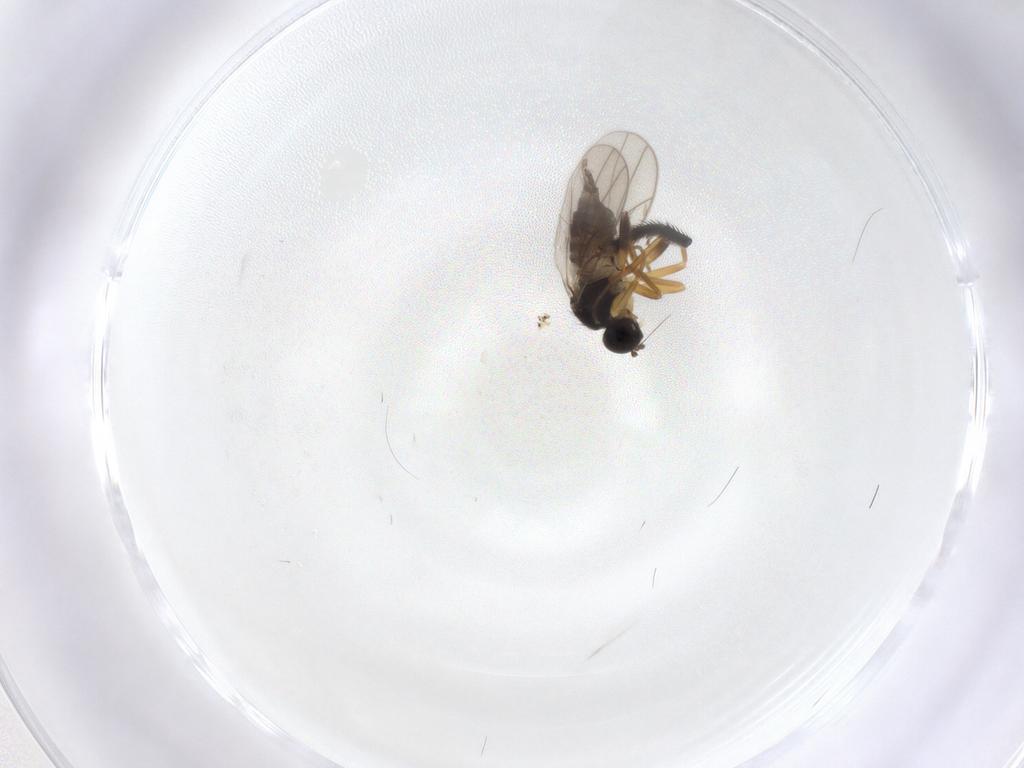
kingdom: Animalia
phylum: Arthropoda
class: Insecta
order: Diptera
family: Hybotidae
